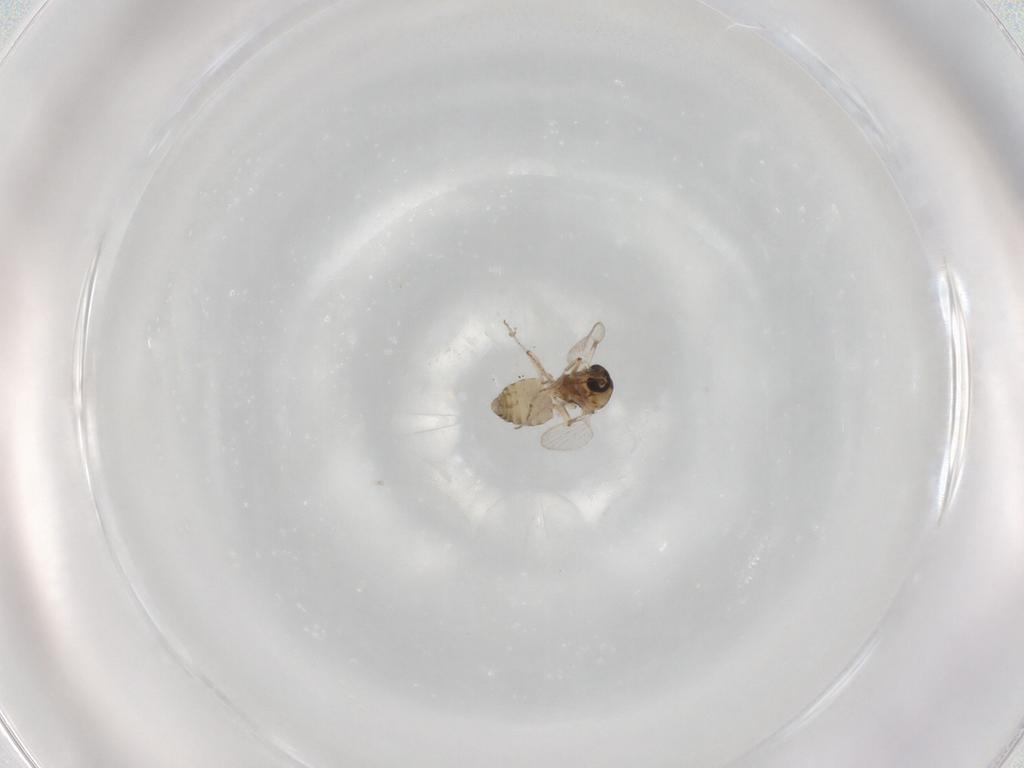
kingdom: Animalia
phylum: Arthropoda
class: Insecta
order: Diptera
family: Ceratopogonidae
